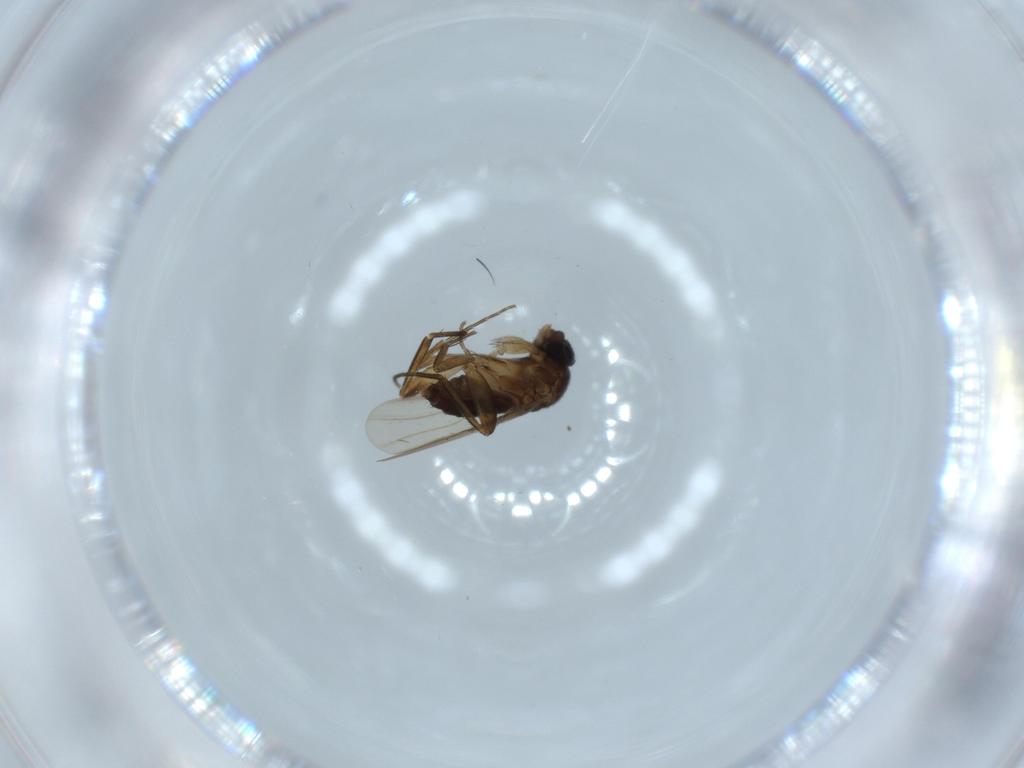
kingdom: Animalia
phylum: Arthropoda
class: Insecta
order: Diptera
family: Phoridae
